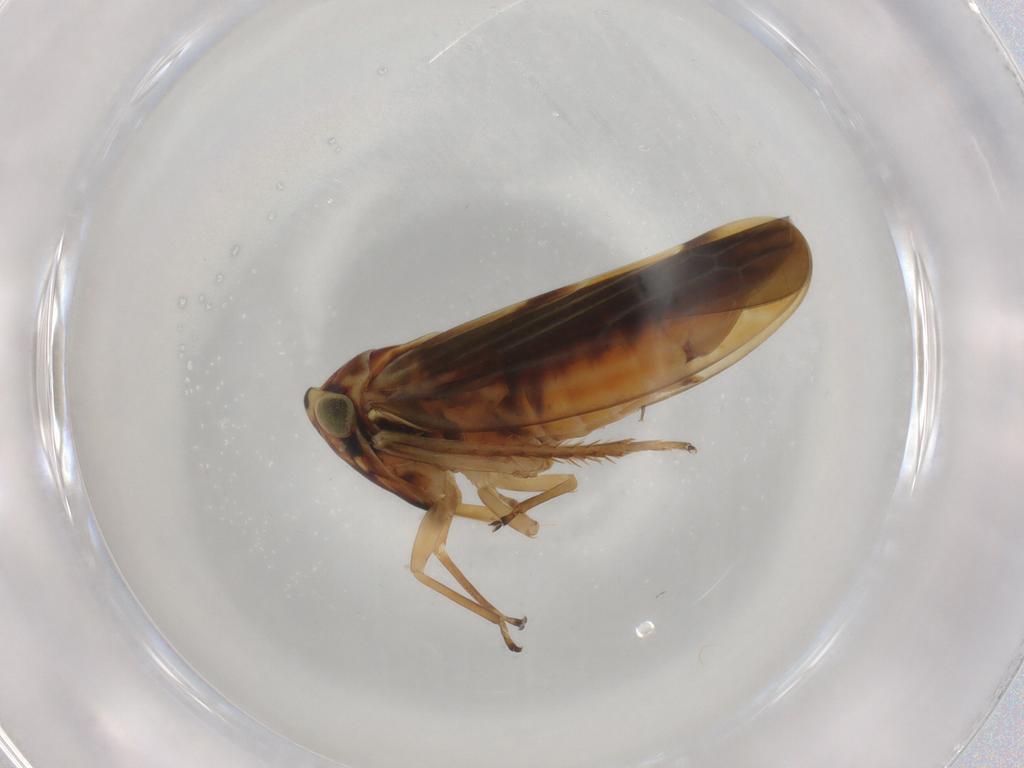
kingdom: Animalia
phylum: Arthropoda
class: Insecta
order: Hemiptera
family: Cicadellidae
